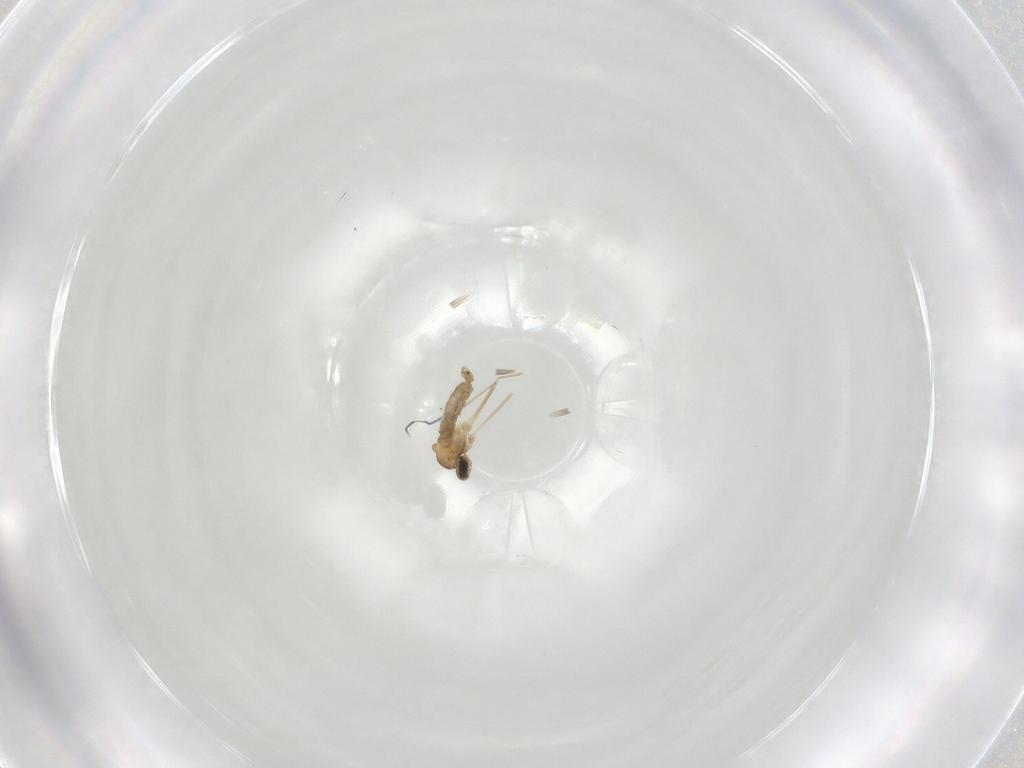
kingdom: Animalia
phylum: Arthropoda
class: Insecta
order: Diptera
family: Cecidomyiidae
